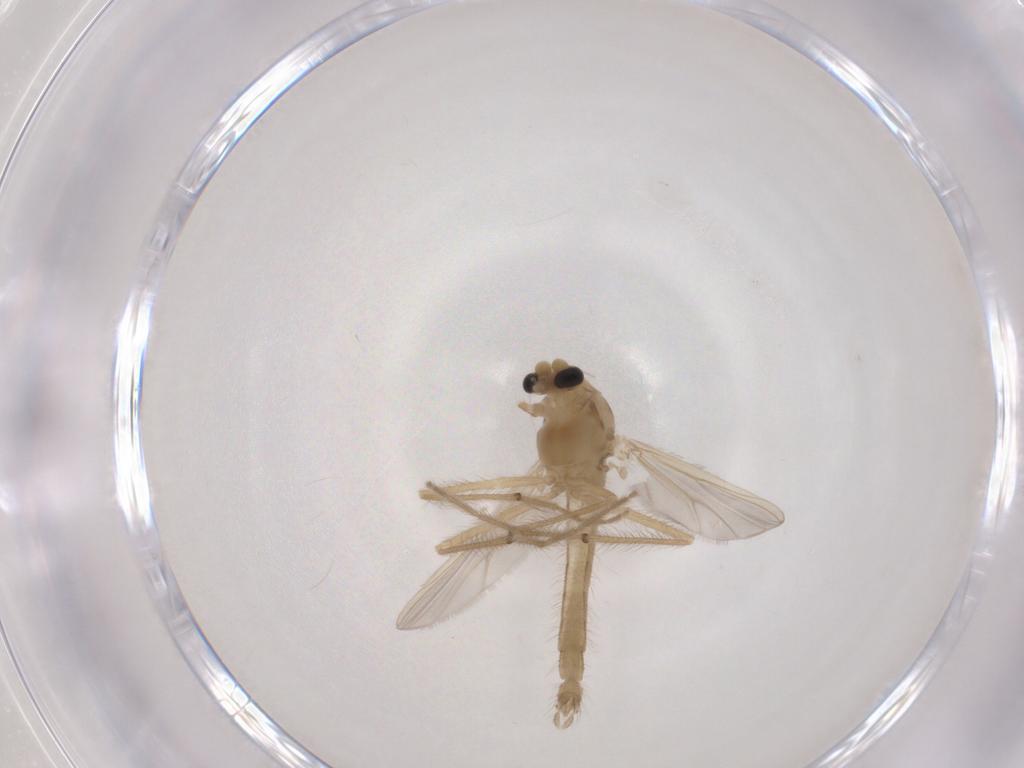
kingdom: Animalia
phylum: Arthropoda
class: Insecta
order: Diptera
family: Chironomidae
